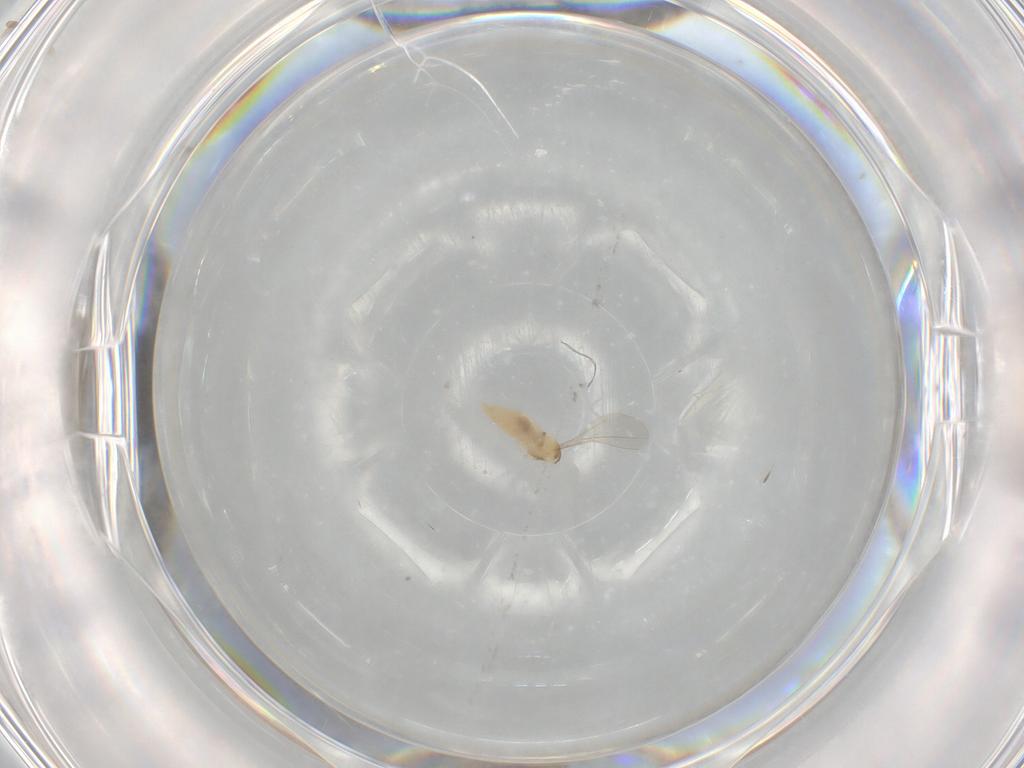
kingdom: Animalia
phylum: Arthropoda
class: Insecta
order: Diptera
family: Dolichopodidae
